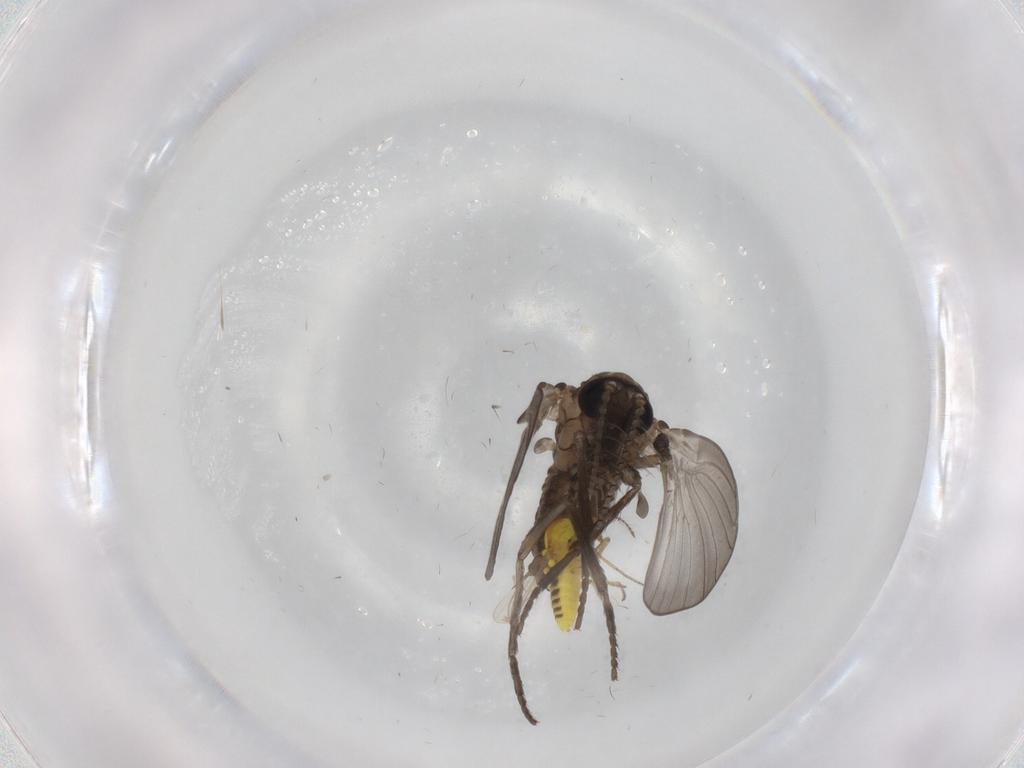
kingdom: Animalia
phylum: Arthropoda
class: Insecta
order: Diptera
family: Ceratopogonidae
